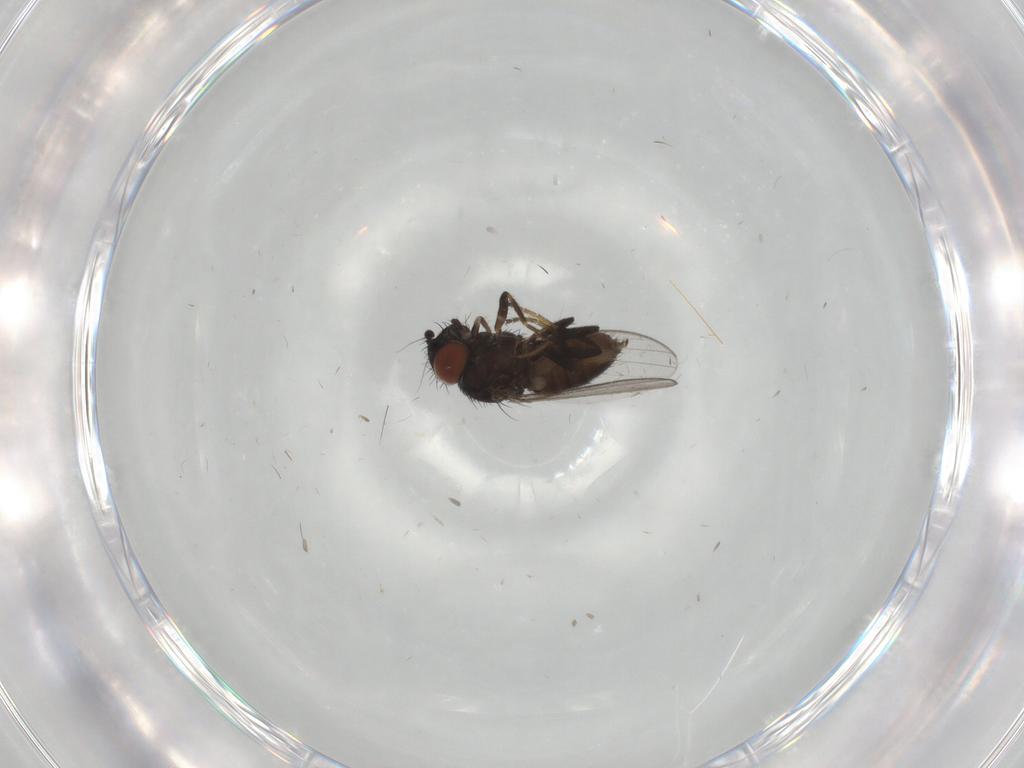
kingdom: Animalia
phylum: Arthropoda
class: Insecta
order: Diptera
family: Milichiidae
